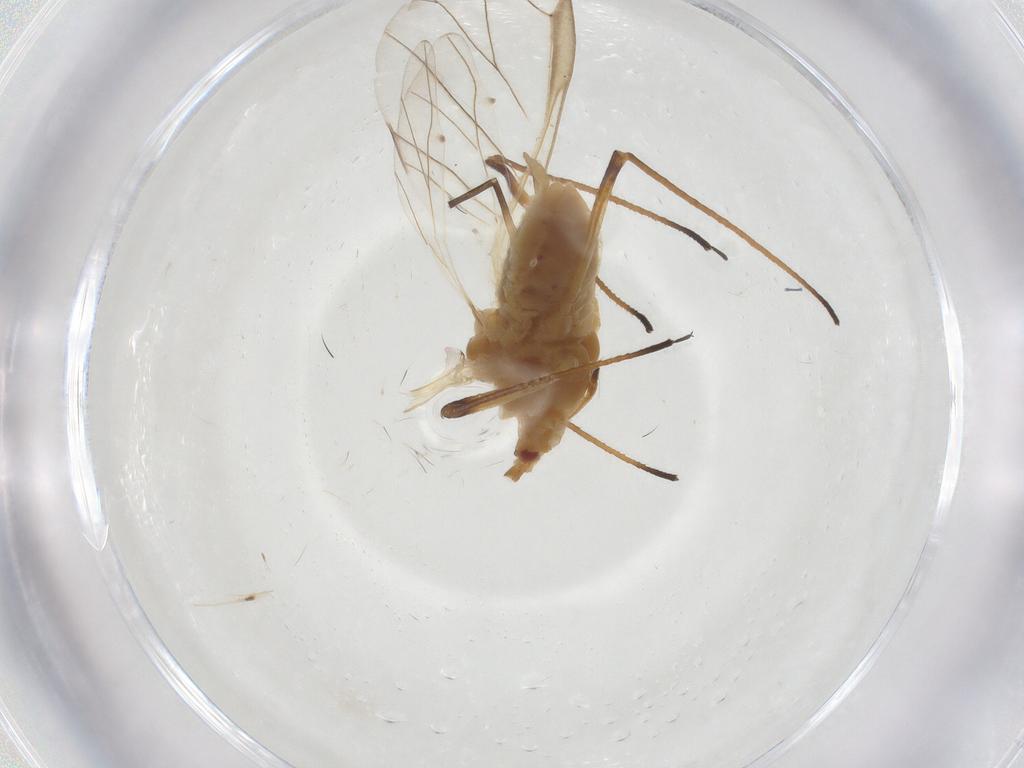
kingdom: Animalia
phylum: Arthropoda
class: Insecta
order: Hemiptera
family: Aphididae
